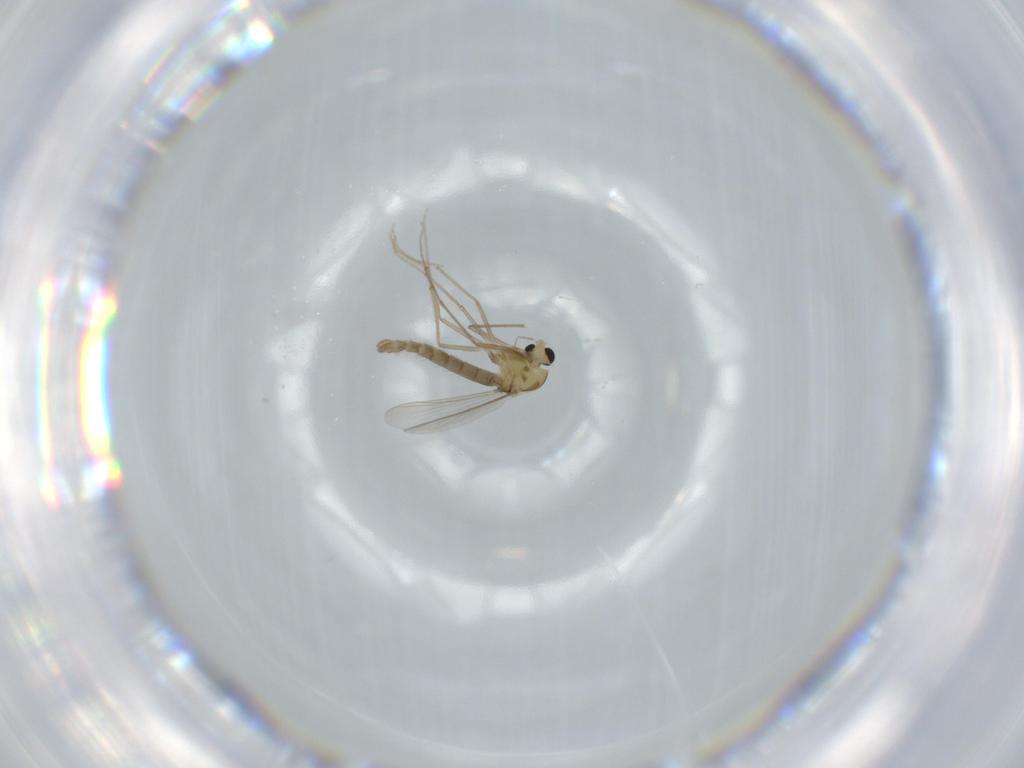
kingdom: Animalia
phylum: Arthropoda
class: Insecta
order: Diptera
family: Chironomidae
